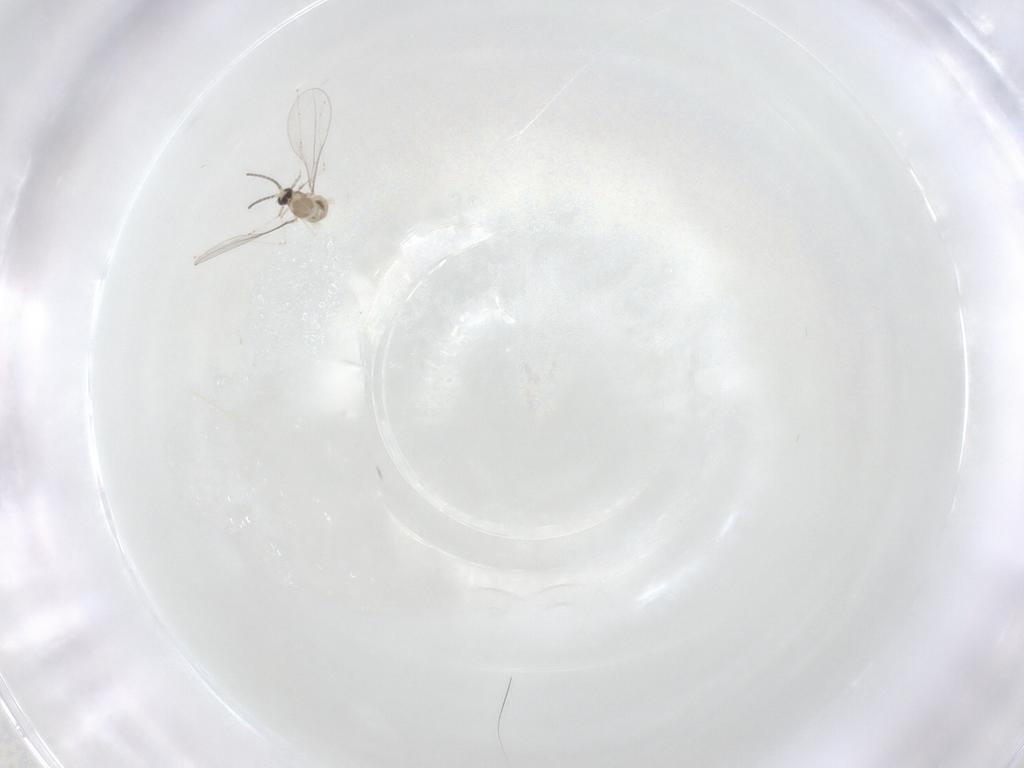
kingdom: Animalia
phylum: Arthropoda
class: Insecta
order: Diptera
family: Cecidomyiidae
